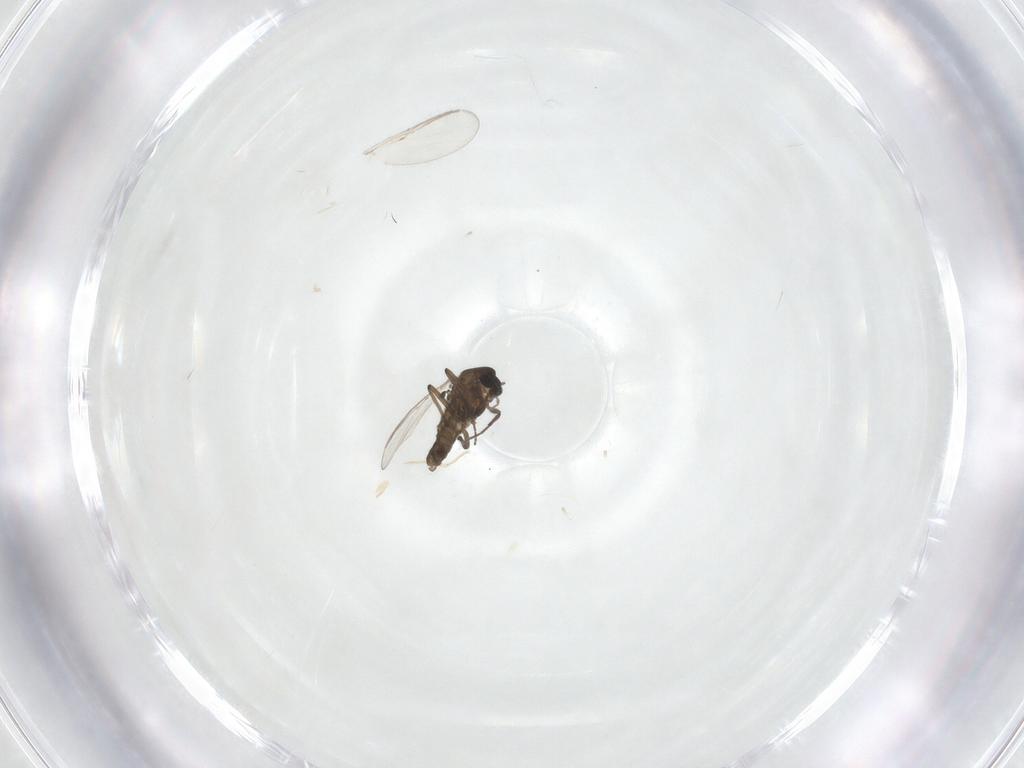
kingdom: Animalia
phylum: Arthropoda
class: Insecta
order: Diptera
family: Chironomidae
